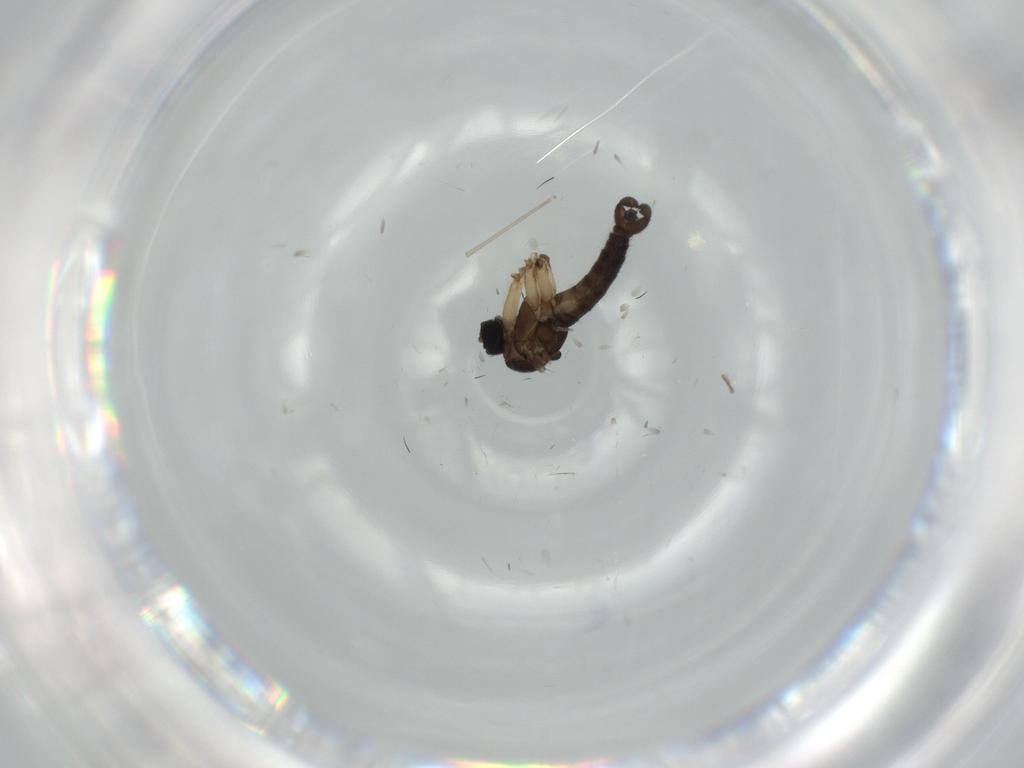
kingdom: Animalia
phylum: Arthropoda
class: Insecta
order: Diptera
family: Cecidomyiidae
